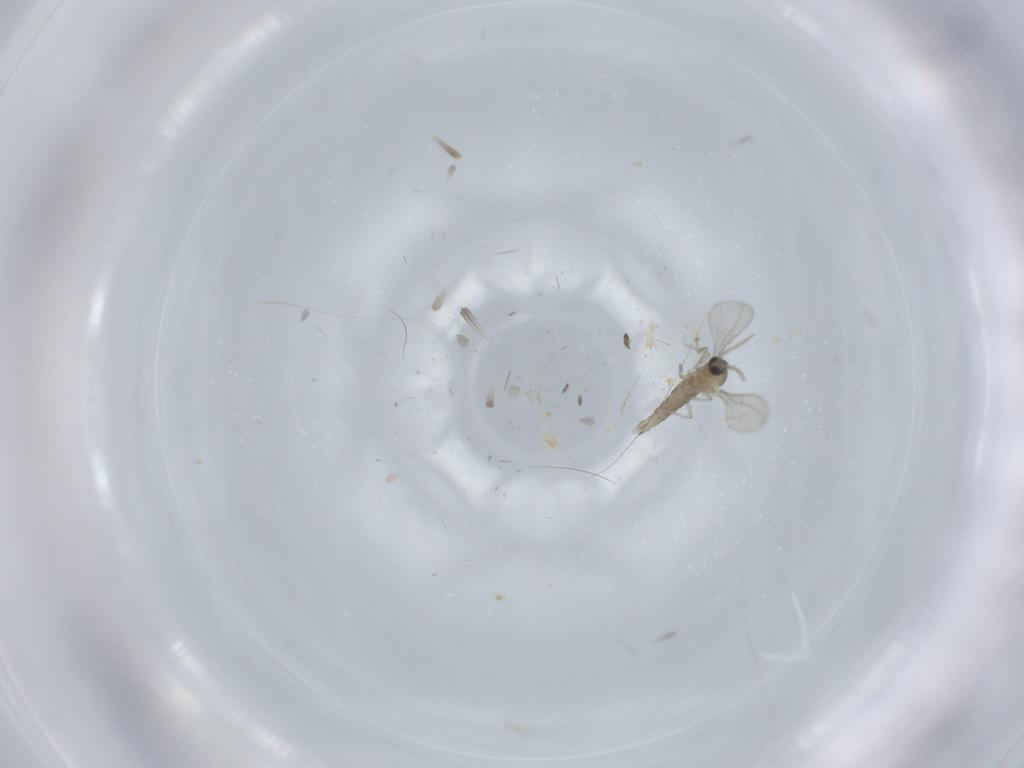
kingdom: Animalia
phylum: Arthropoda
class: Insecta
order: Diptera
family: Cecidomyiidae
